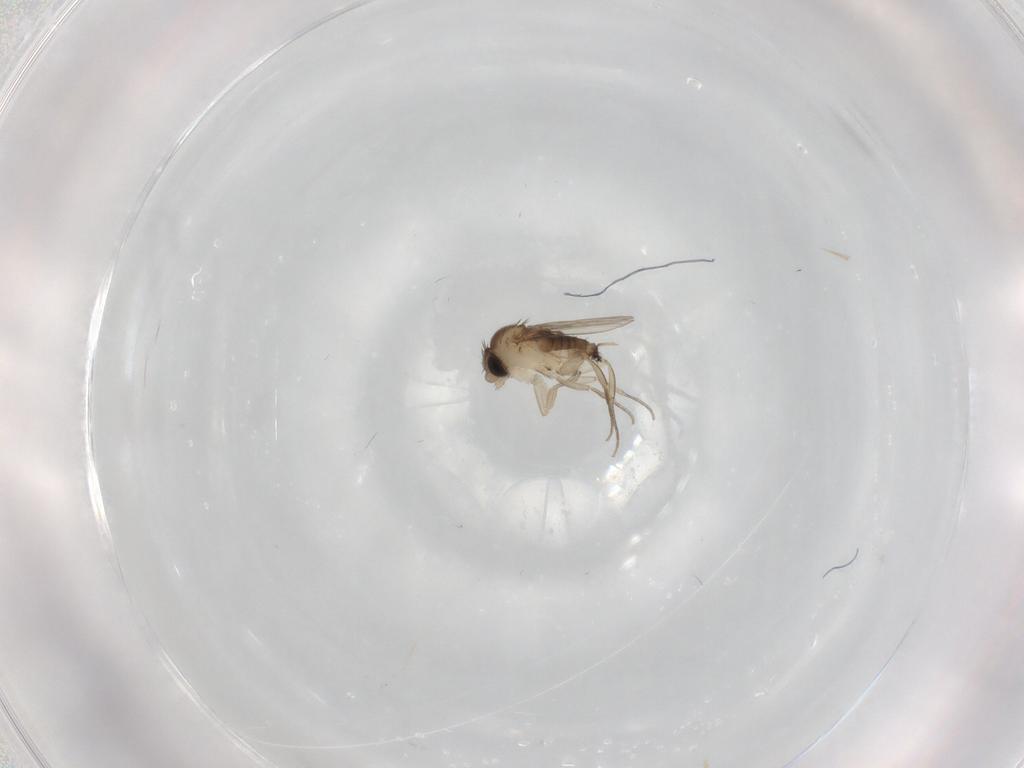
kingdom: Animalia
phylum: Arthropoda
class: Insecta
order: Diptera
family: Phoridae
